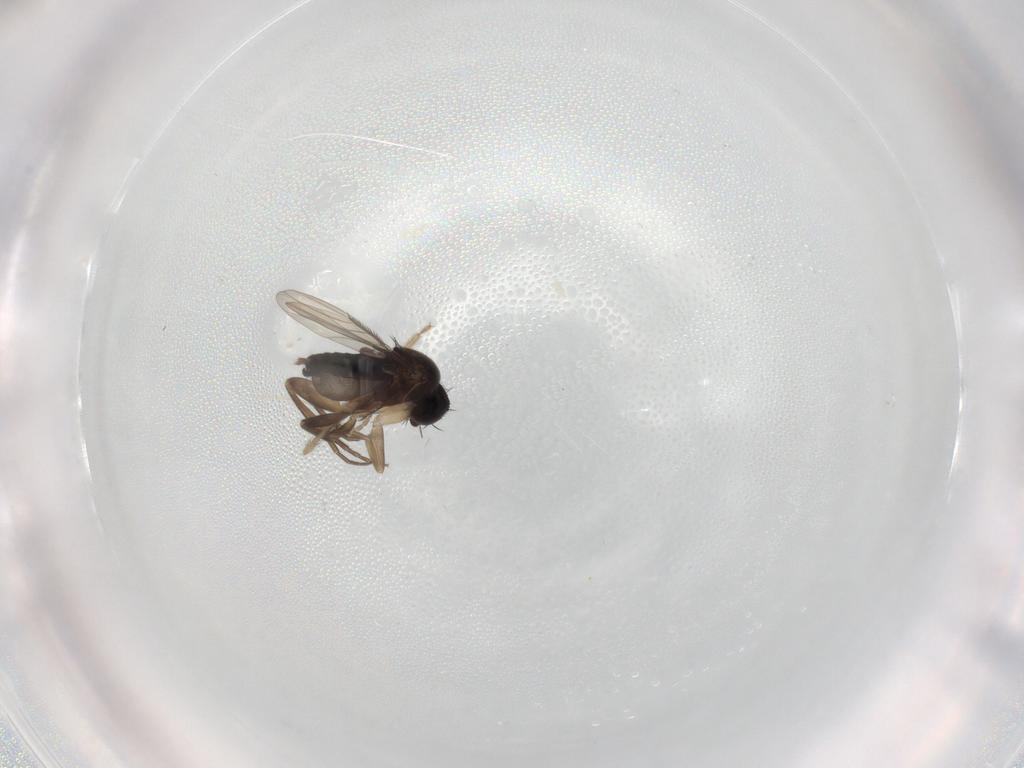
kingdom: Animalia
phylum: Arthropoda
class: Insecta
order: Diptera
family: Phoridae
